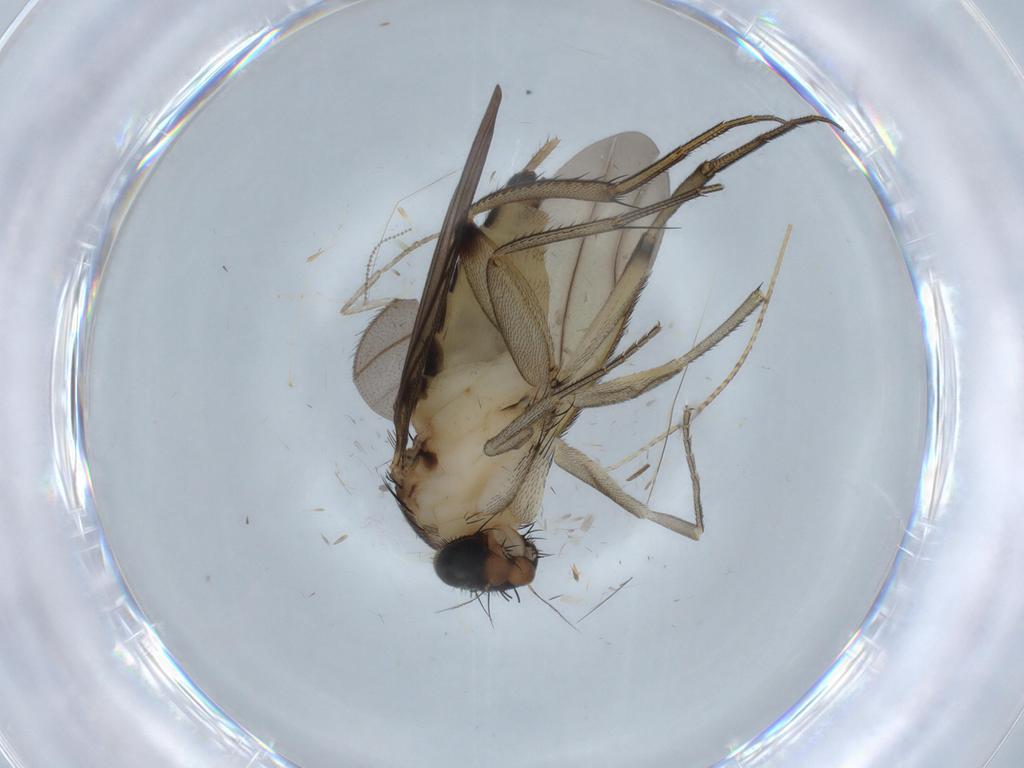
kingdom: Animalia
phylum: Arthropoda
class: Insecta
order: Diptera
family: Phoridae
